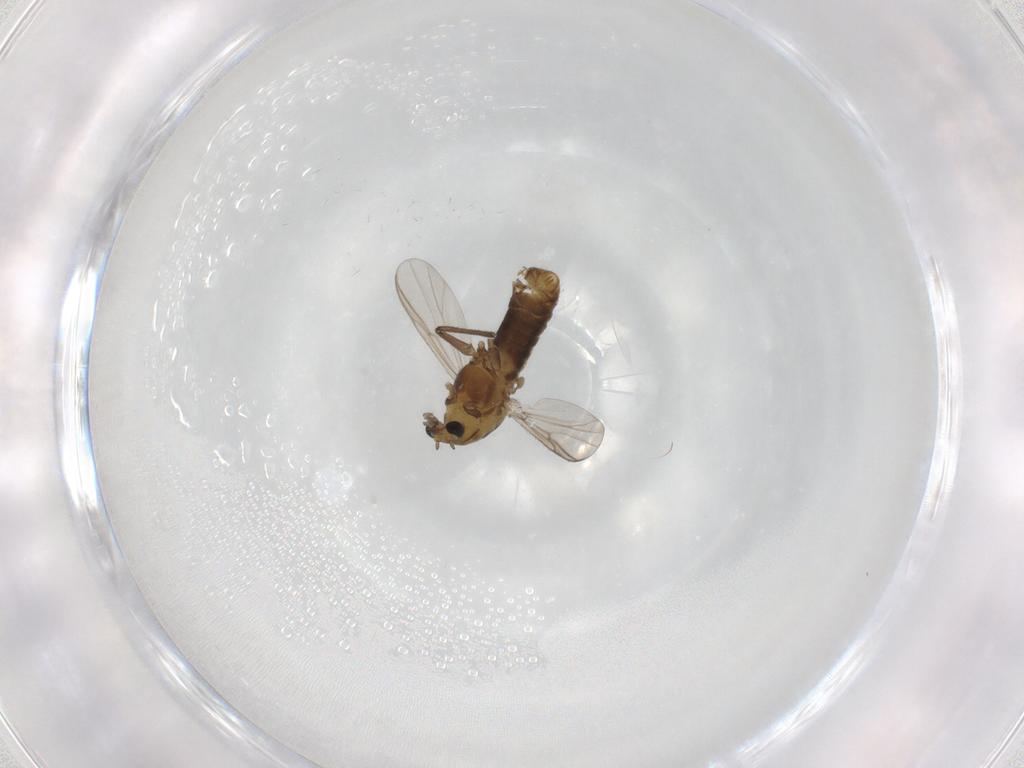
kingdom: Animalia
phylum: Arthropoda
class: Insecta
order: Diptera
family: Chironomidae
